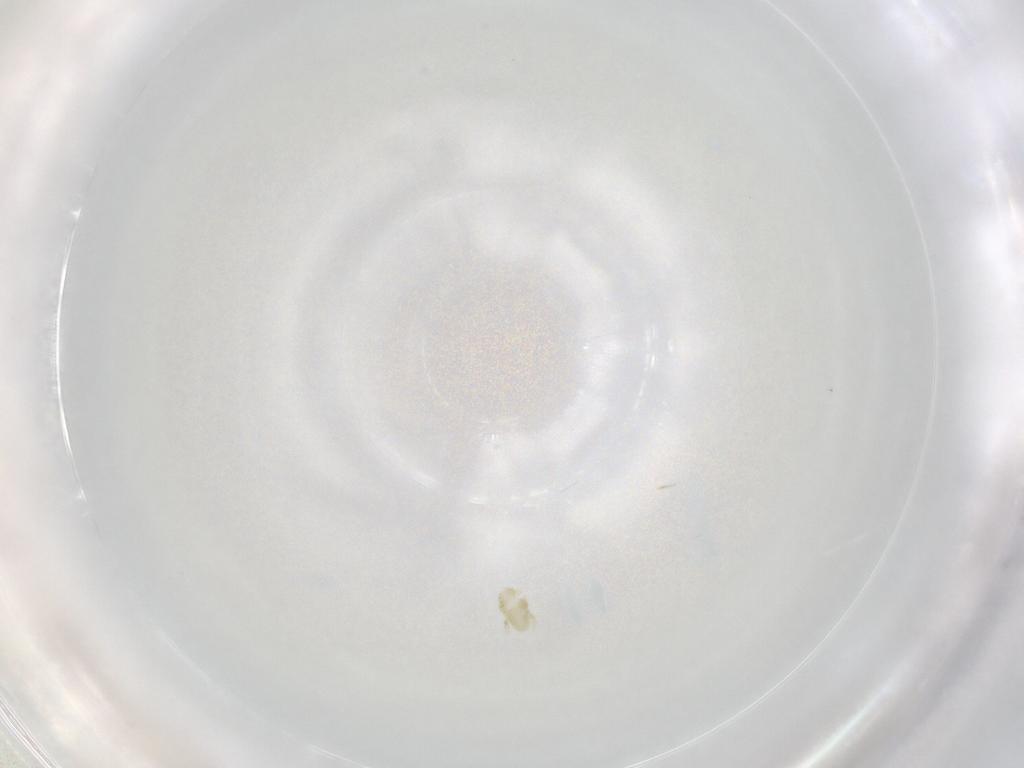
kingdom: Animalia
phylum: Arthropoda
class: Arachnida
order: Trombidiformes
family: Eupodidae
